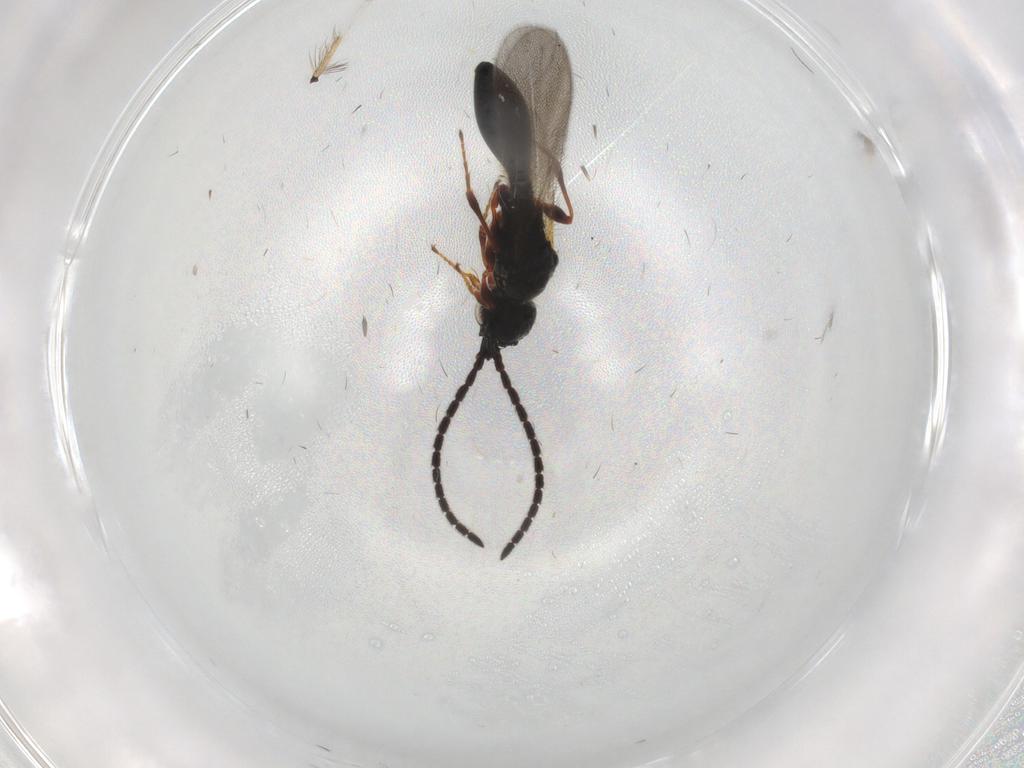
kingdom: Animalia
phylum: Arthropoda
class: Insecta
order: Hymenoptera
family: Diapriidae
